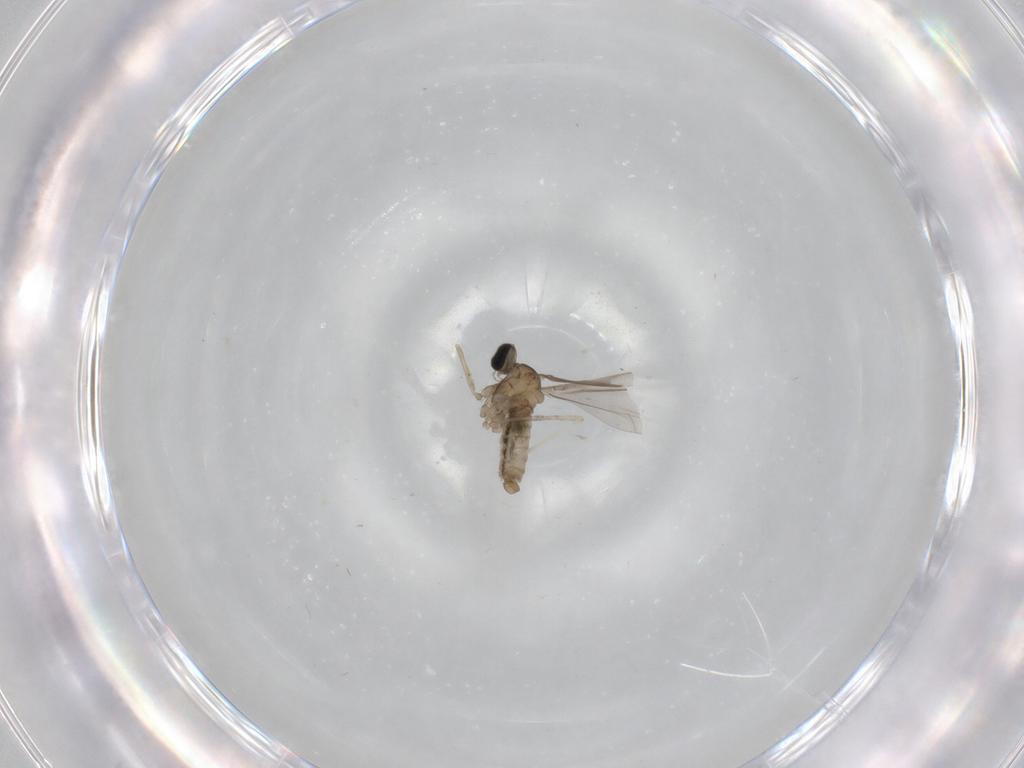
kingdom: Animalia
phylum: Arthropoda
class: Insecta
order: Diptera
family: Cecidomyiidae
